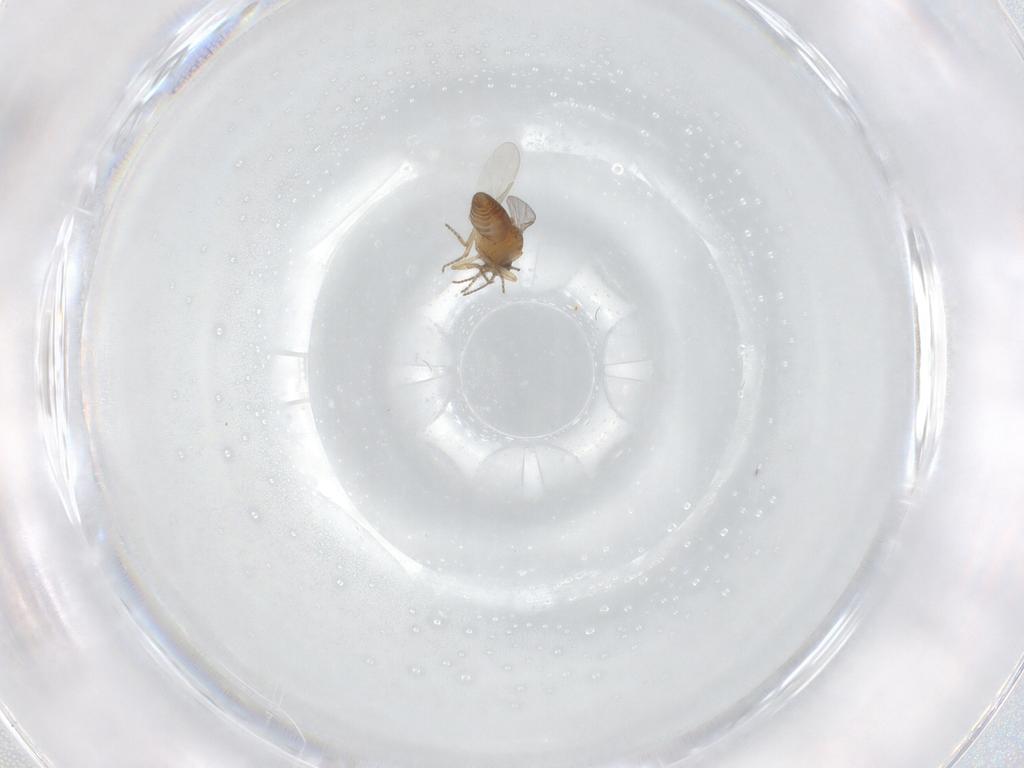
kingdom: Animalia
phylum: Arthropoda
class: Insecta
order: Diptera
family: Ceratopogonidae
